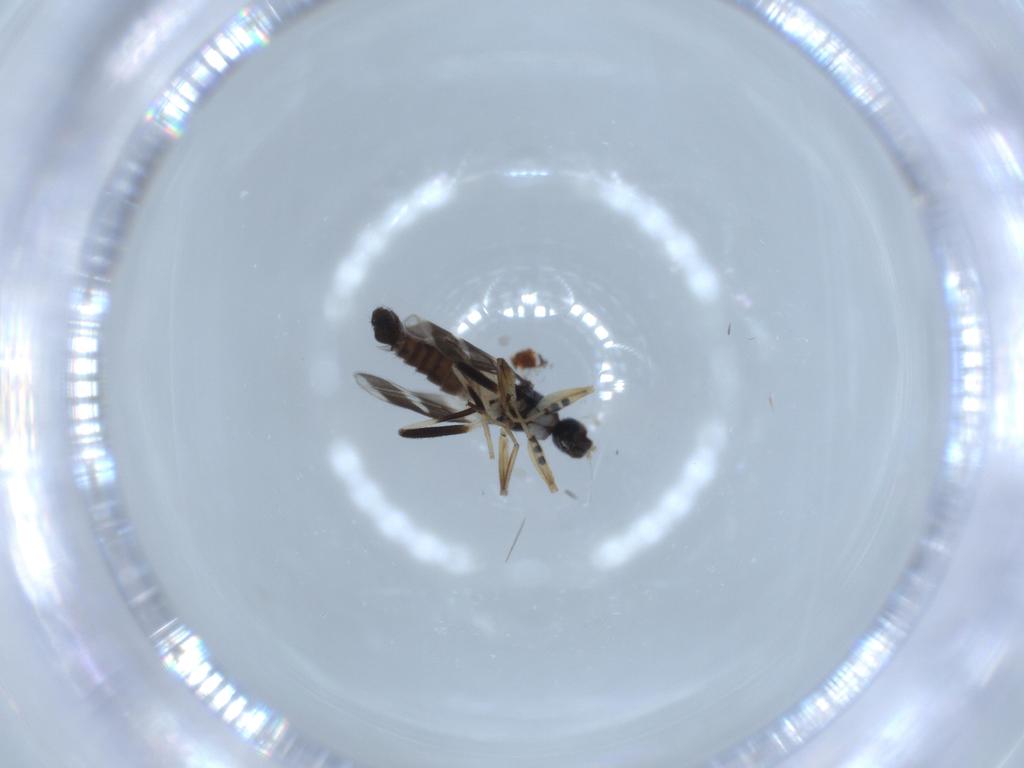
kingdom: Animalia
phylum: Arthropoda
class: Insecta
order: Diptera
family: Hybotidae
